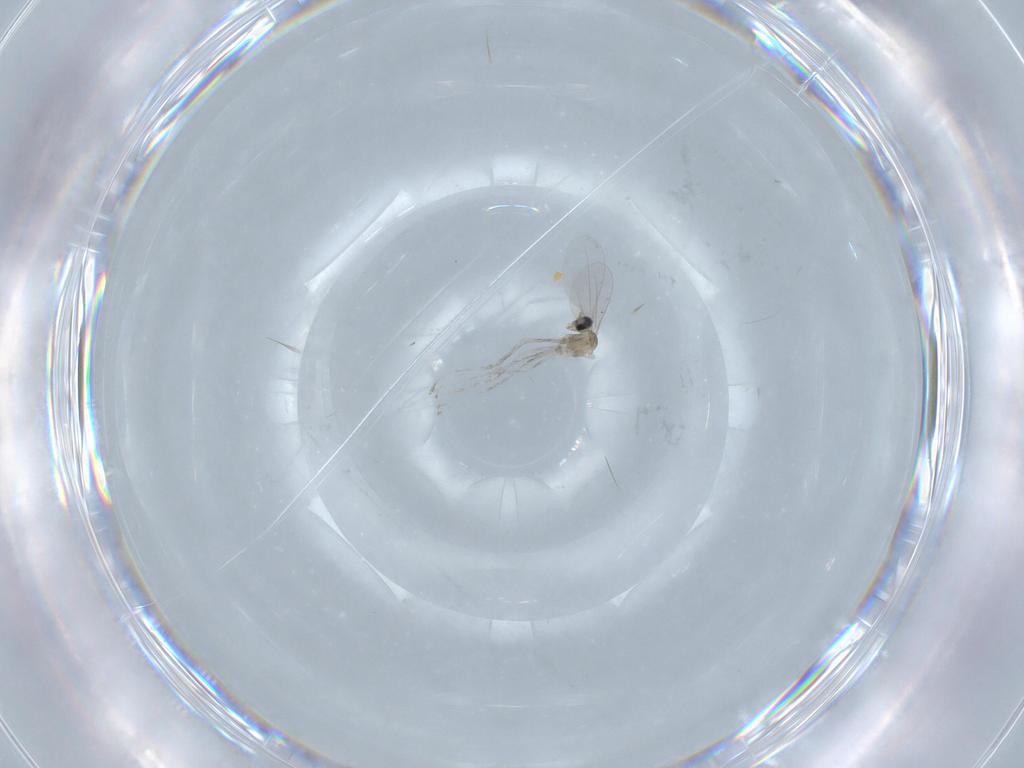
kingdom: Animalia
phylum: Arthropoda
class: Insecta
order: Diptera
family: Cecidomyiidae
